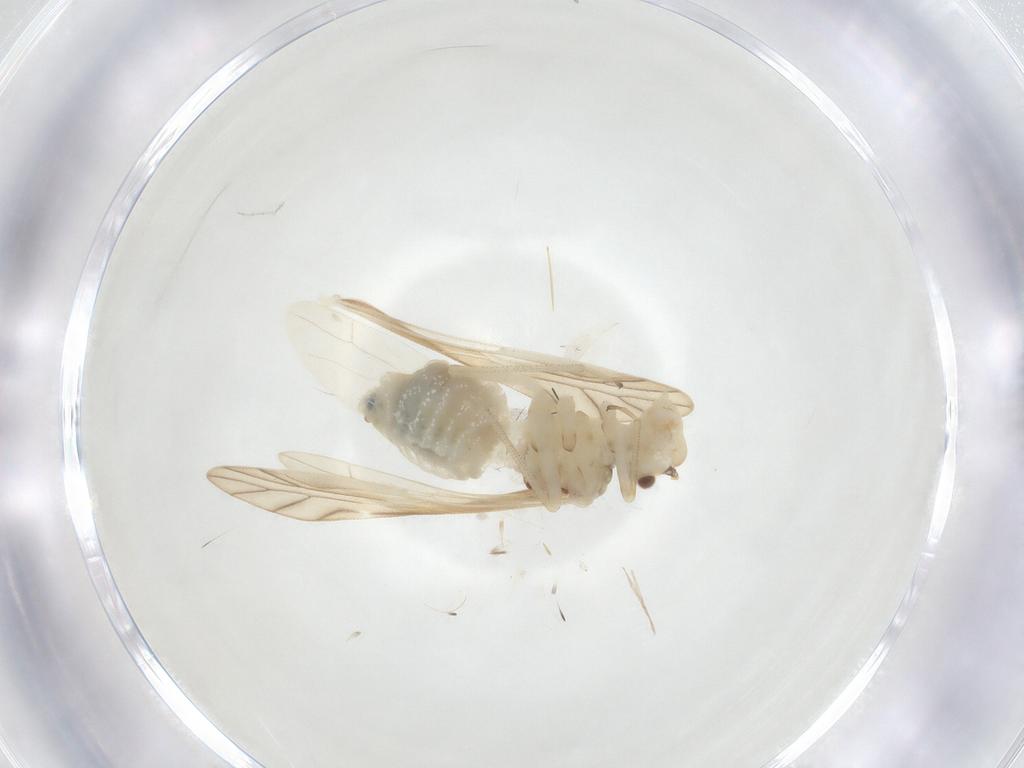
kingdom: Animalia
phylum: Arthropoda
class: Insecta
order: Psocodea
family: Caeciliusidae
